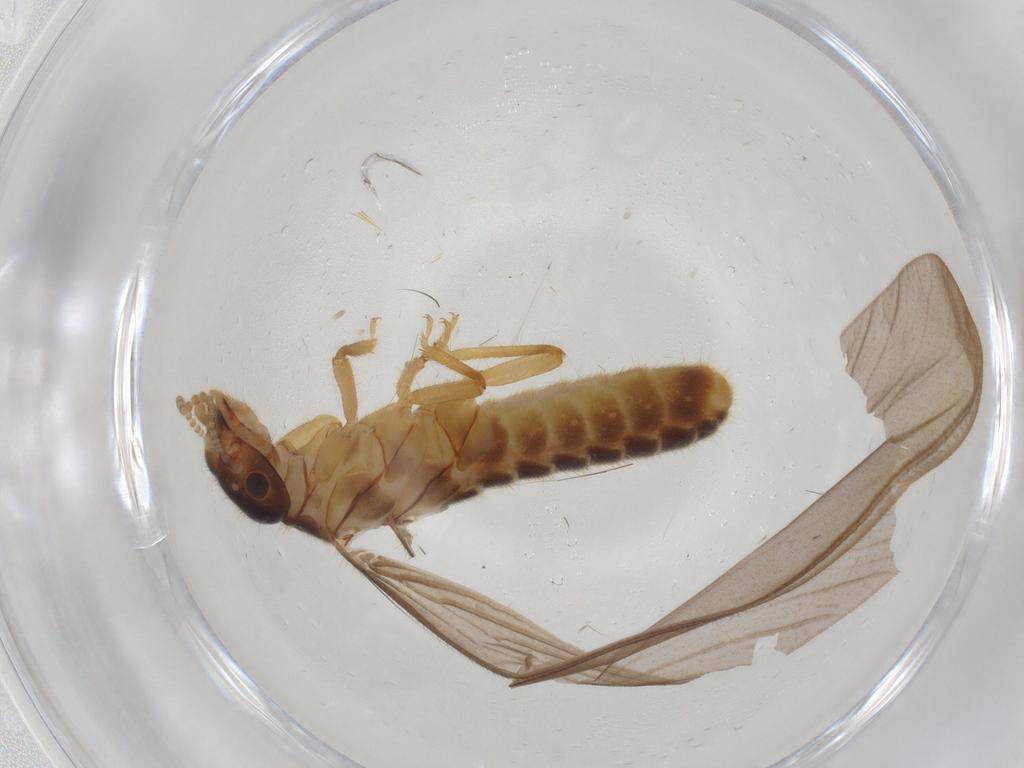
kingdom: Animalia
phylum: Arthropoda
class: Insecta
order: Blattodea
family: Termitidae
